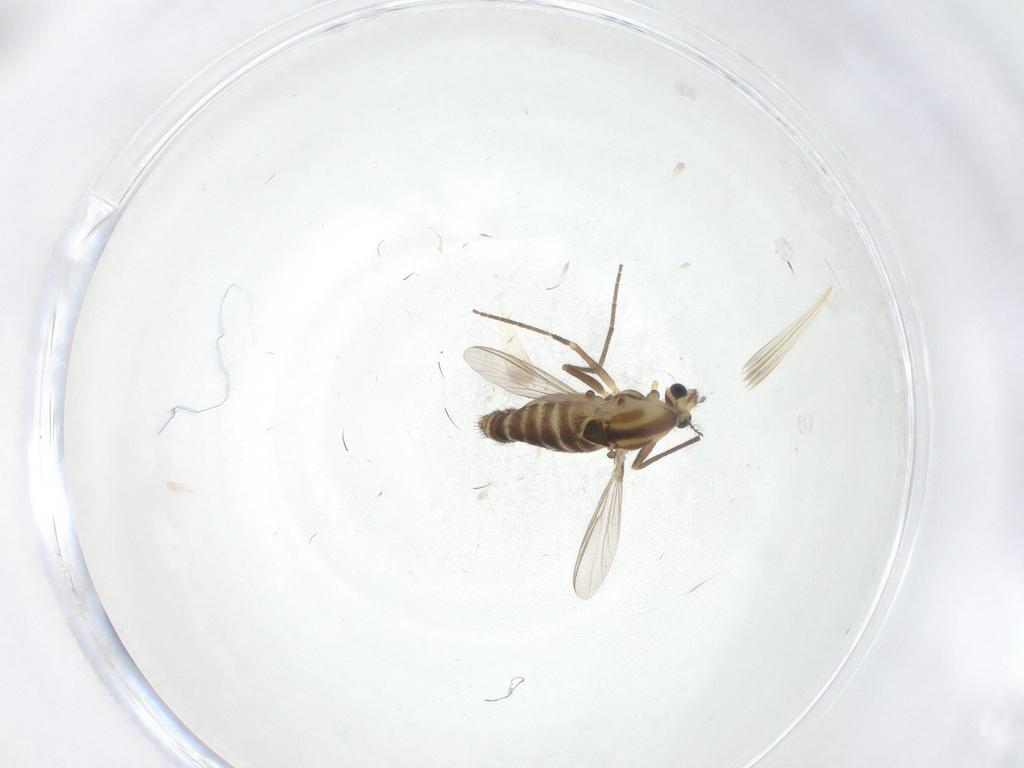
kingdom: Animalia
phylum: Arthropoda
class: Insecta
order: Diptera
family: Chironomidae
